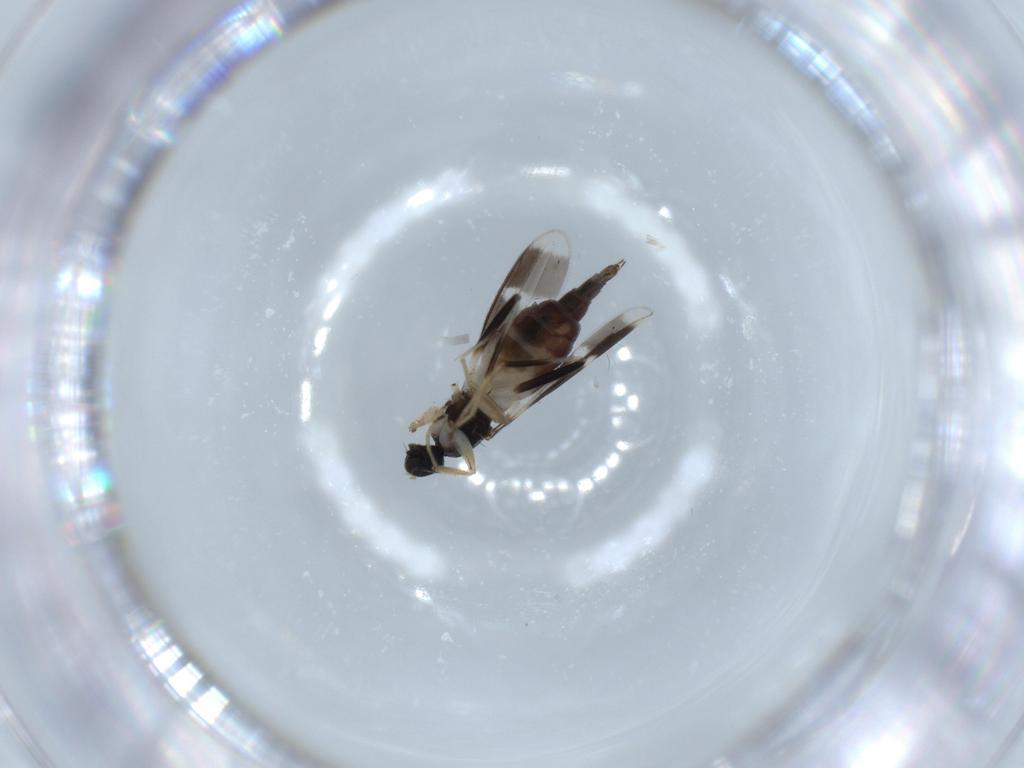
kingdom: Animalia
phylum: Arthropoda
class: Insecta
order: Diptera
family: Hybotidae
